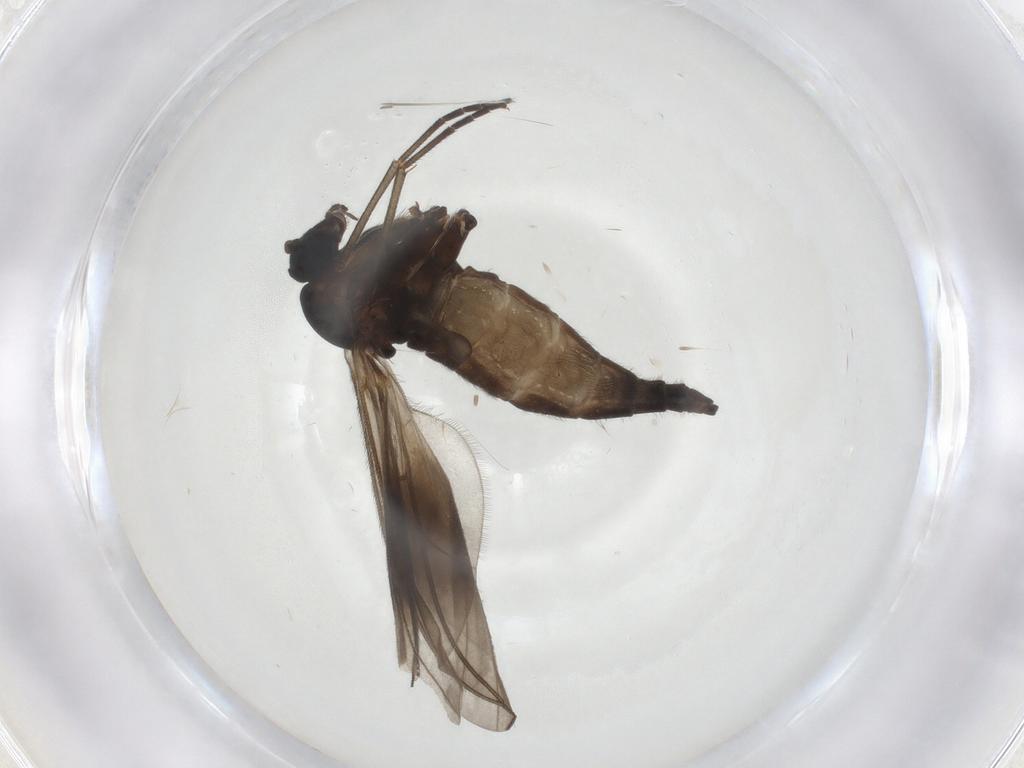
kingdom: Animalia
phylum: Arthropoda
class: Insecta
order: Diptera
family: Sciaridae
